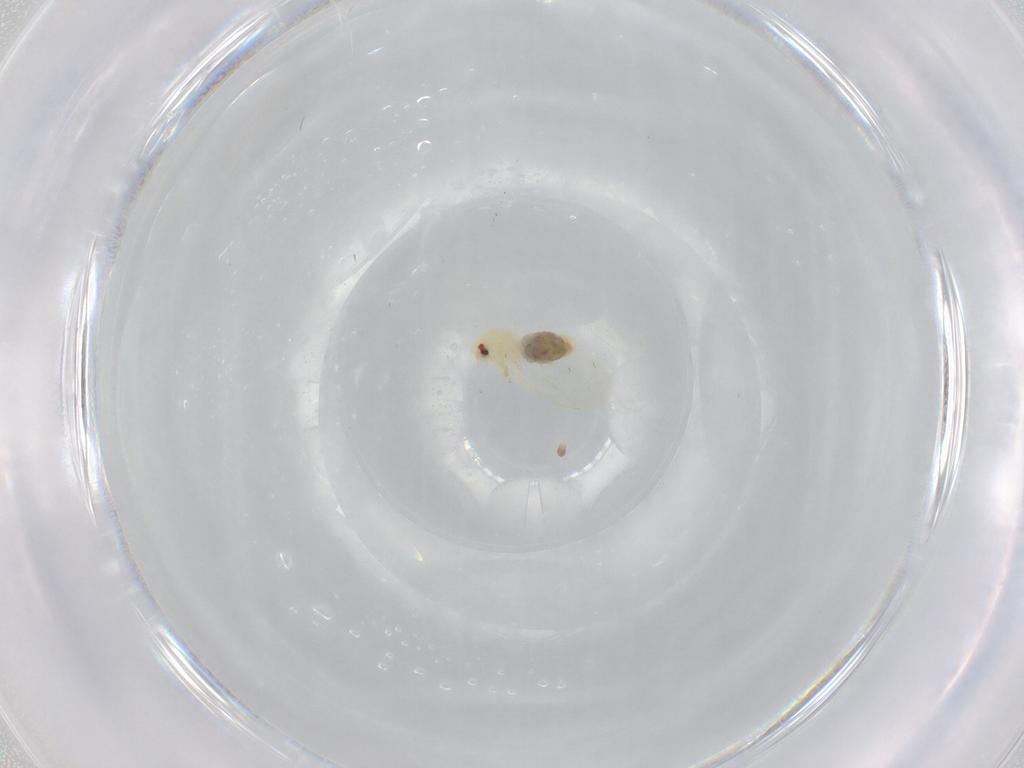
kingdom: Animalia
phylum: Arthropoda
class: Insecta
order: Hemiptera
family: Aleyrodidae
